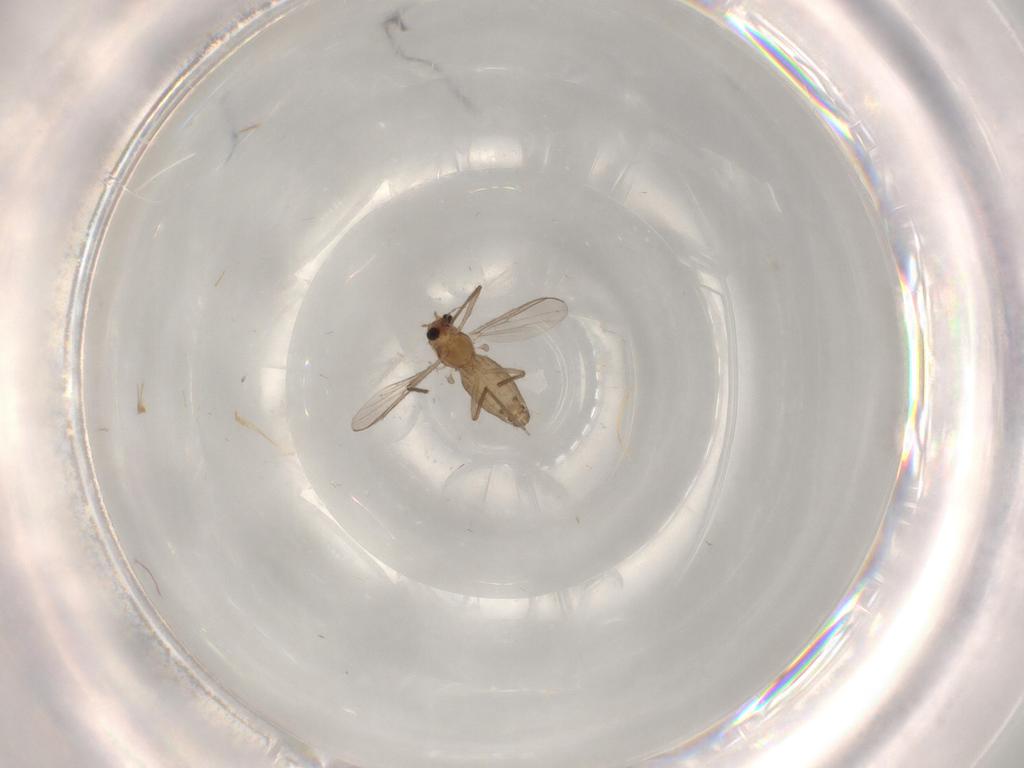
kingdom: Animalia
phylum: Arthropoda
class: Insecta
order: Diptera
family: Chironomidae
